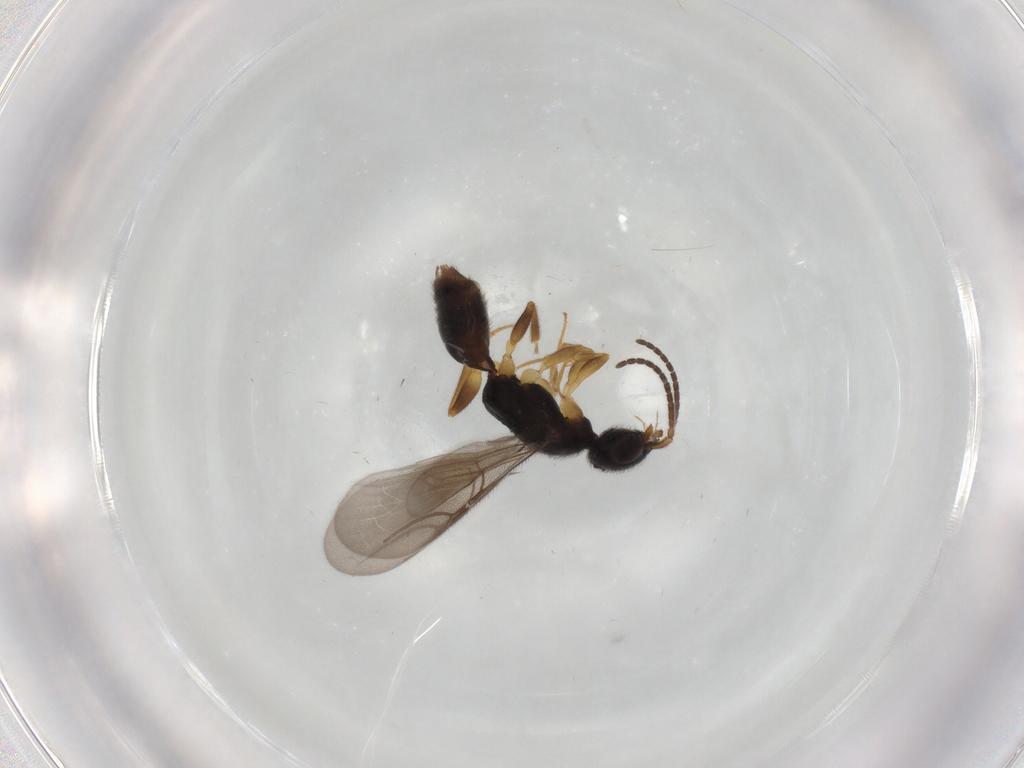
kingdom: Animalia
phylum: Arthropoda
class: Insecta
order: Hymenoptera
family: Bethylidae
